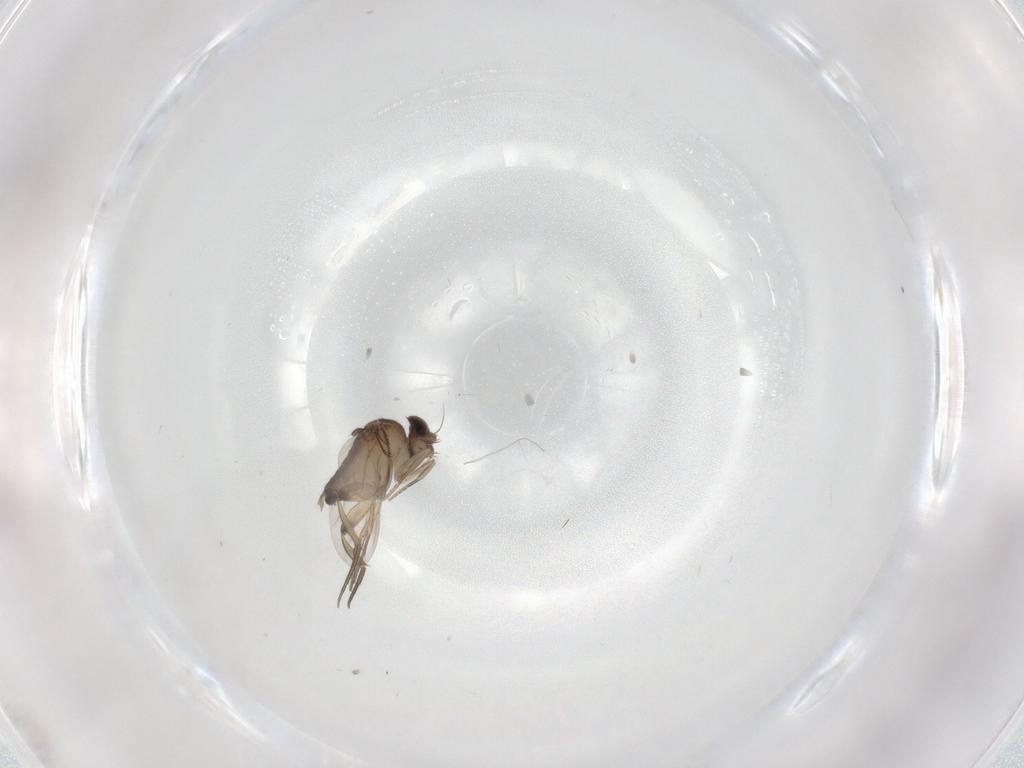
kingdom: Animalia
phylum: Arthropoda
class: Insecta
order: Diptera
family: Phoridae
